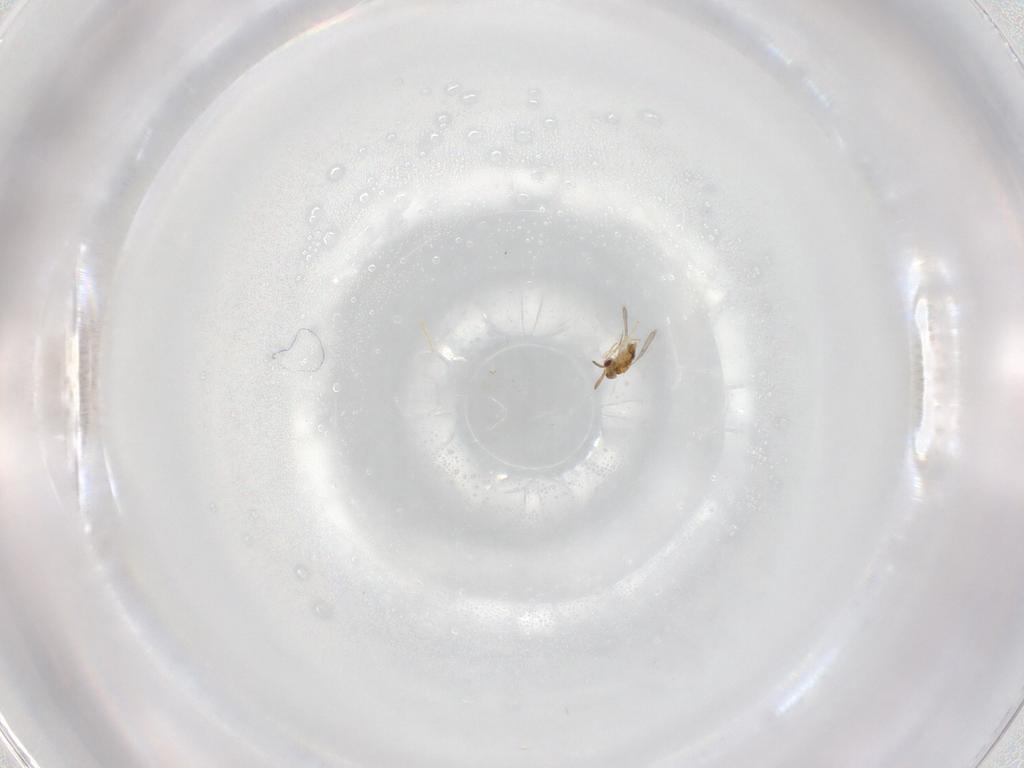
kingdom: Animalia
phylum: Arthropoda
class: Insecta
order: Hymenoptera
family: Aphelinidae
